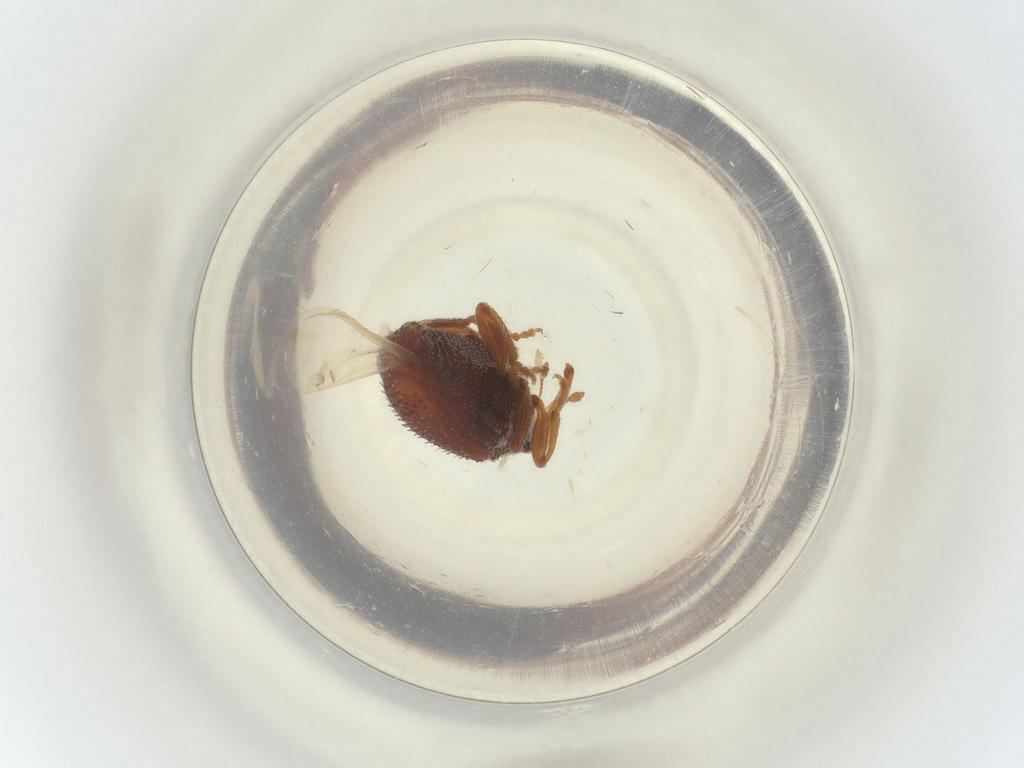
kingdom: Animalia
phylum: Arthropoda
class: Insecta
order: Coleoptera
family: Curculionidae
